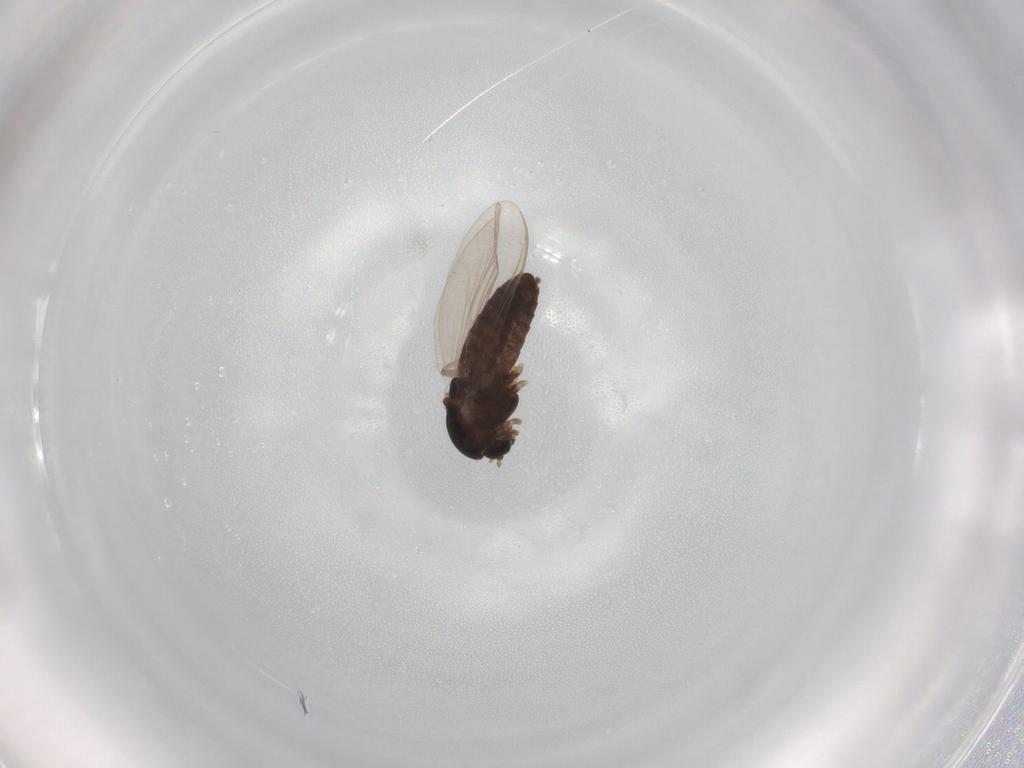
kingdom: Animalia
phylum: Arthropoda
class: Insecta
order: Diptera
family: Chironomidae
